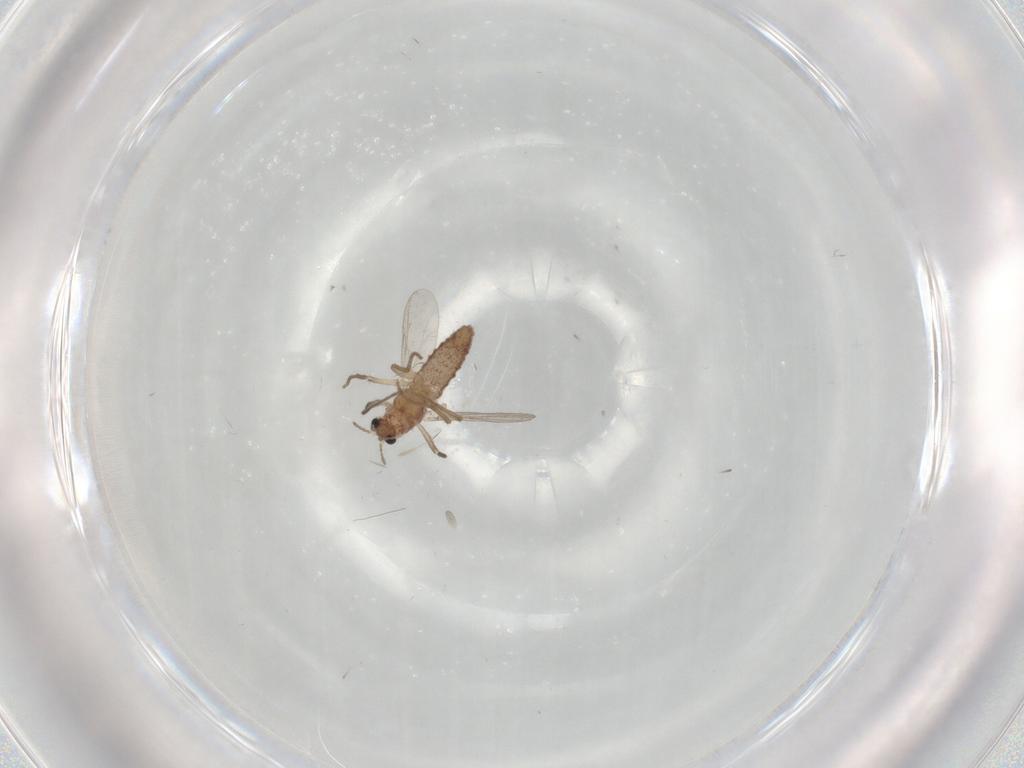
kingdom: Animalia
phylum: Arthropoda
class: Insecta
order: Diptera
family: Chironomidae
